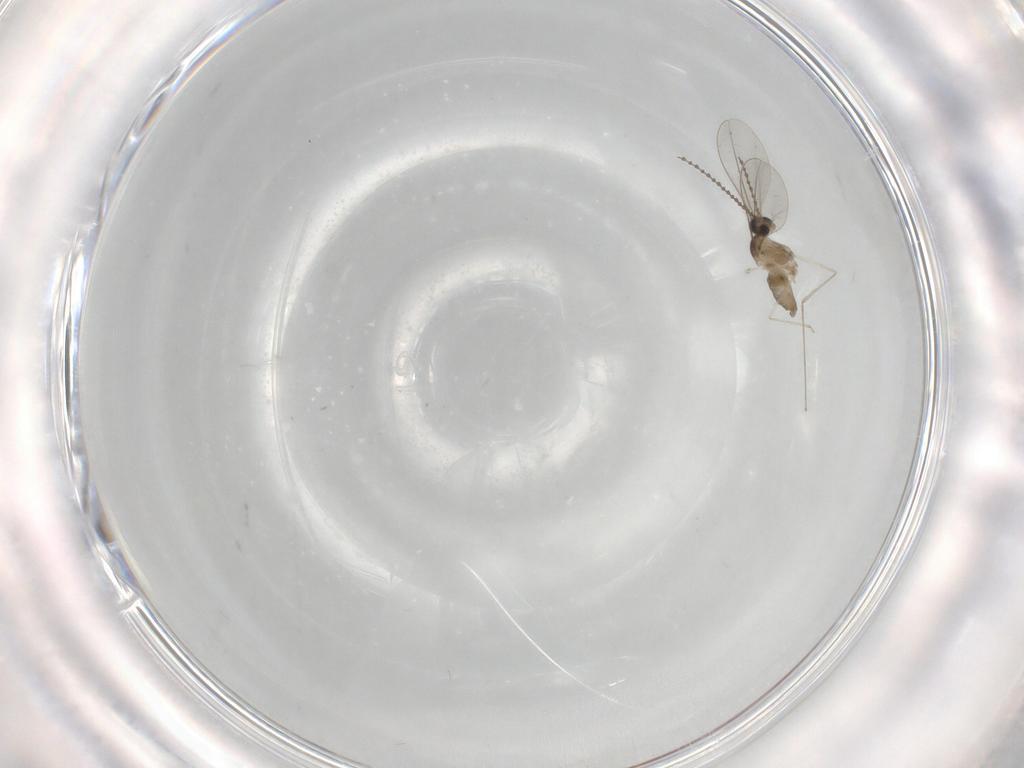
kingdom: Animalia
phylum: Arthropoda
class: Insecta
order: Diptera
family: Cecidomyiidae
